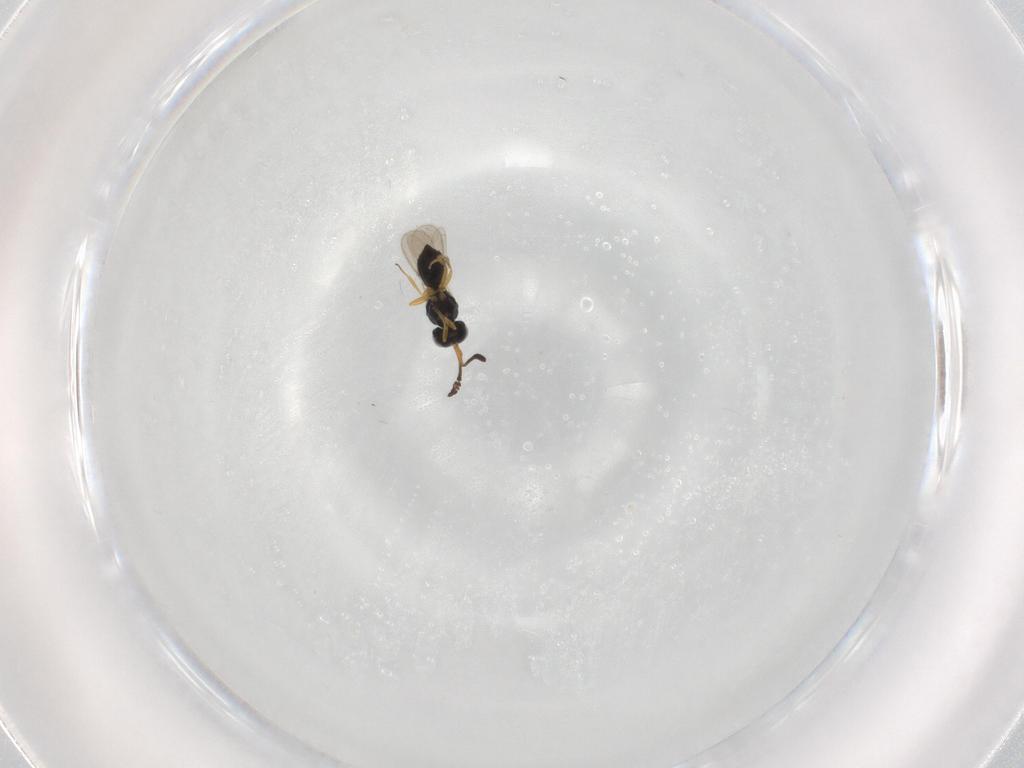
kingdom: Animalia
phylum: Arthropoda
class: Insecta
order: Hymenoptera
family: Scelionidae
